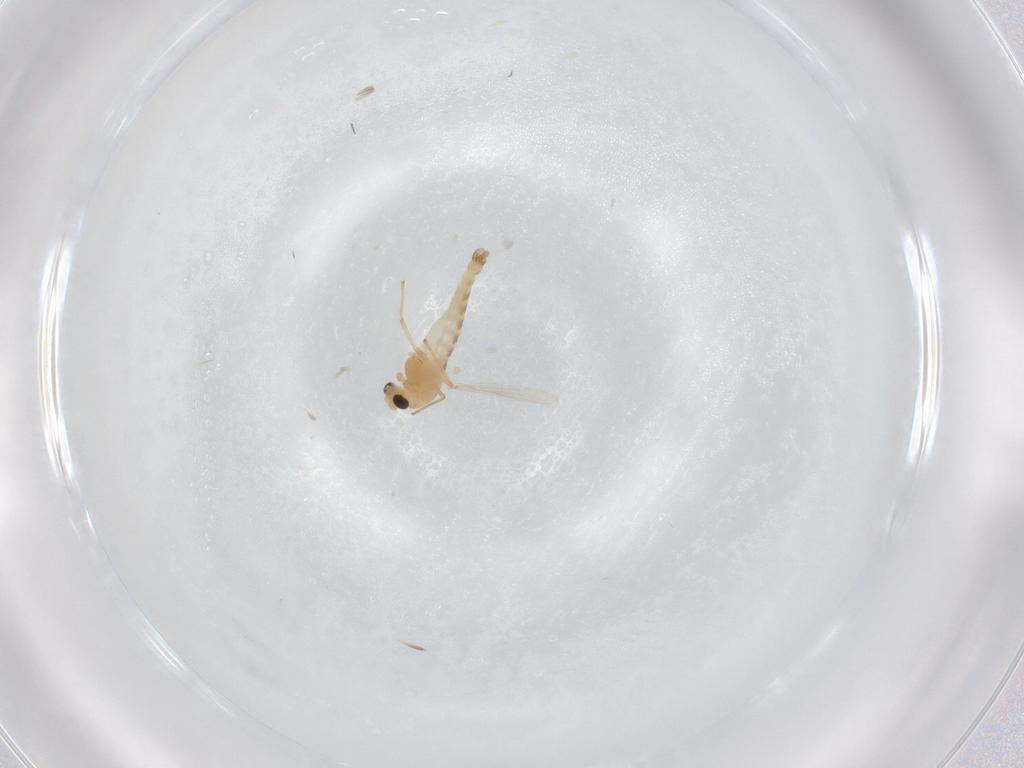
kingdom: Animalia
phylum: Arthropoda
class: Insecta
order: Diptera
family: Chironomidae
